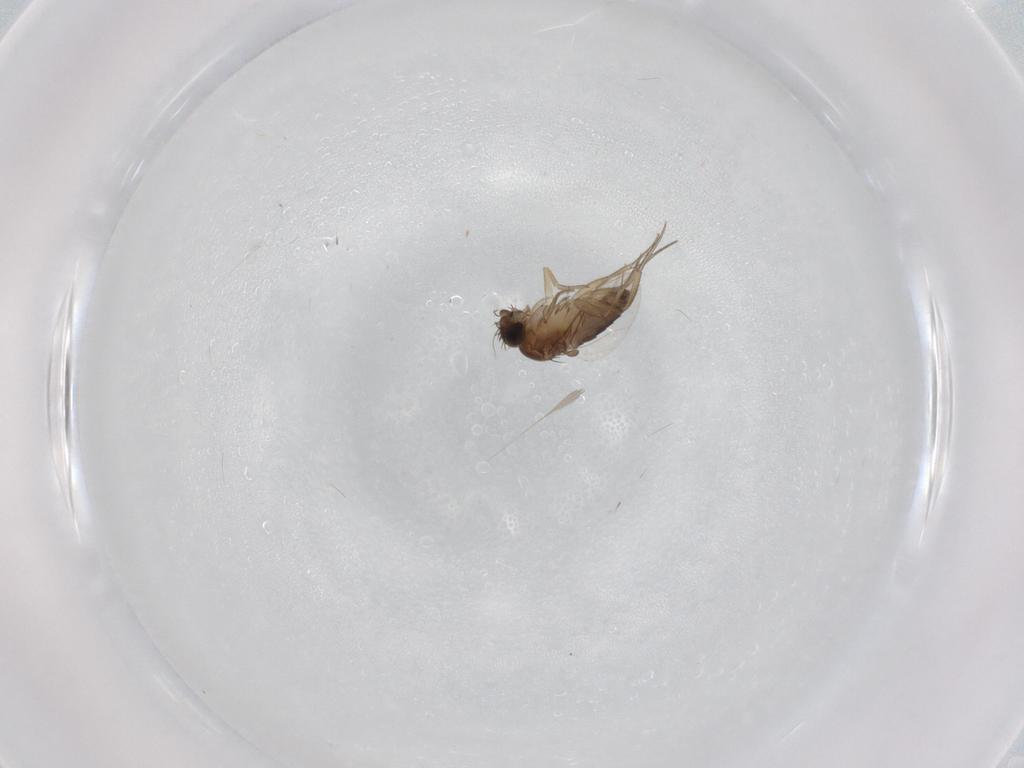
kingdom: Animalia
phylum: Arthropoda
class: Insecta
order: Diptera
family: Phoridae
